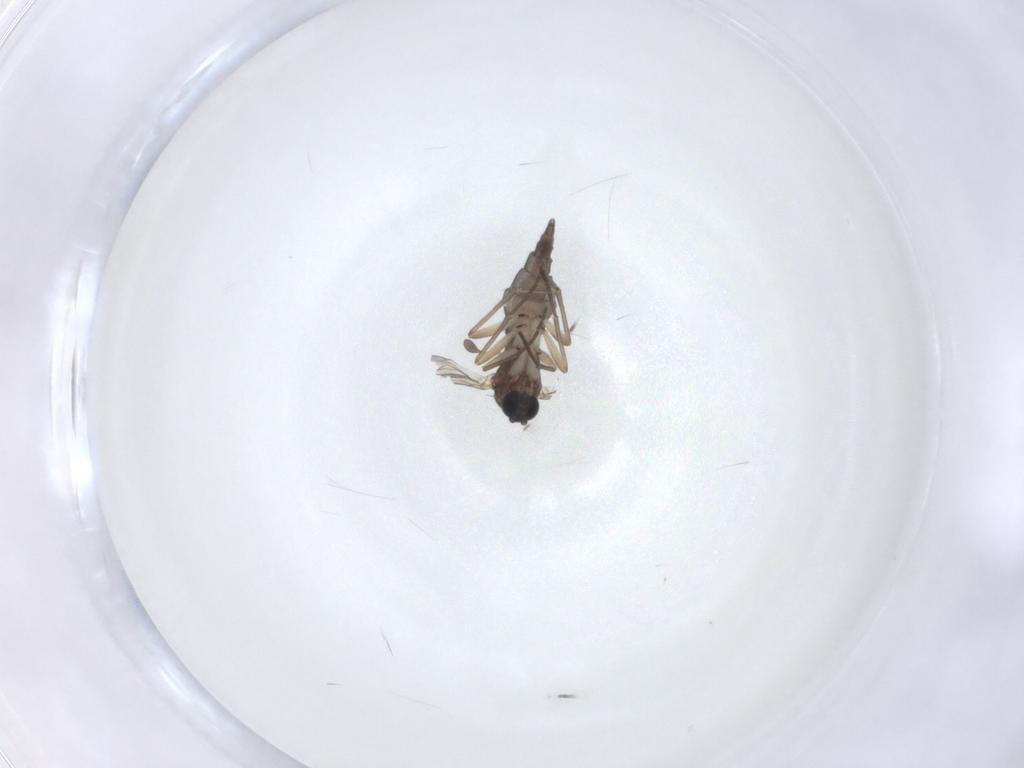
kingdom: Animalia
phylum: Arthropoda
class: Insecta
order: Diptera
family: Sciaridae
